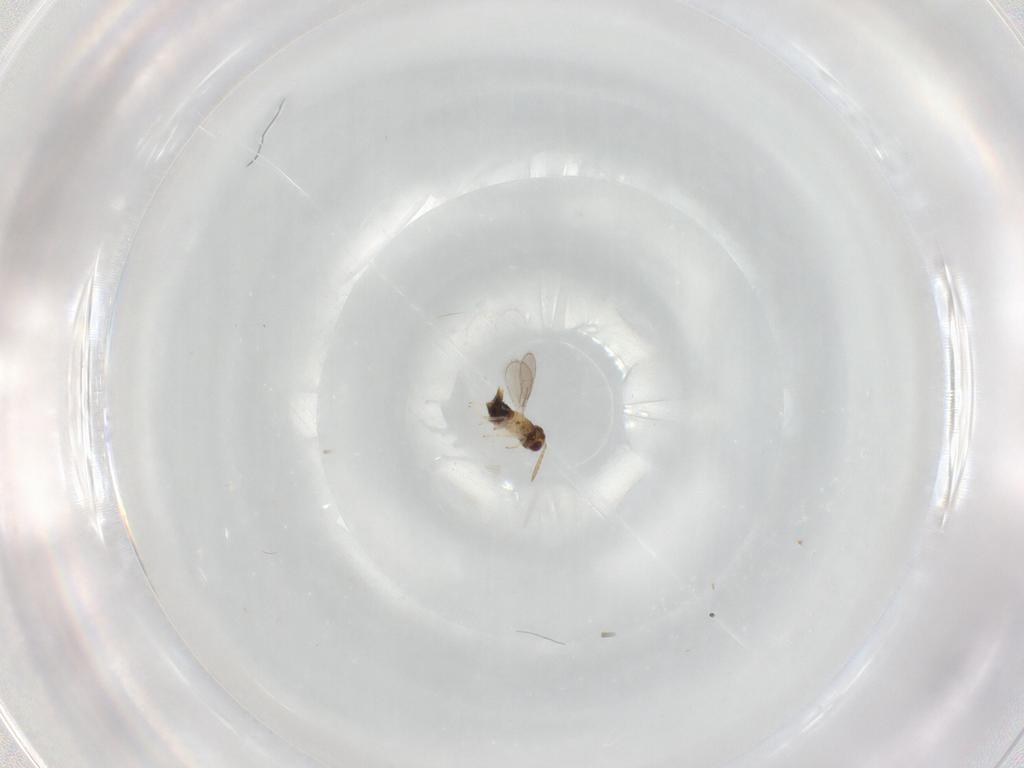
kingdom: Animalia
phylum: Arthropoda
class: Insecta
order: Hymenoptera
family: Aphelinidae
